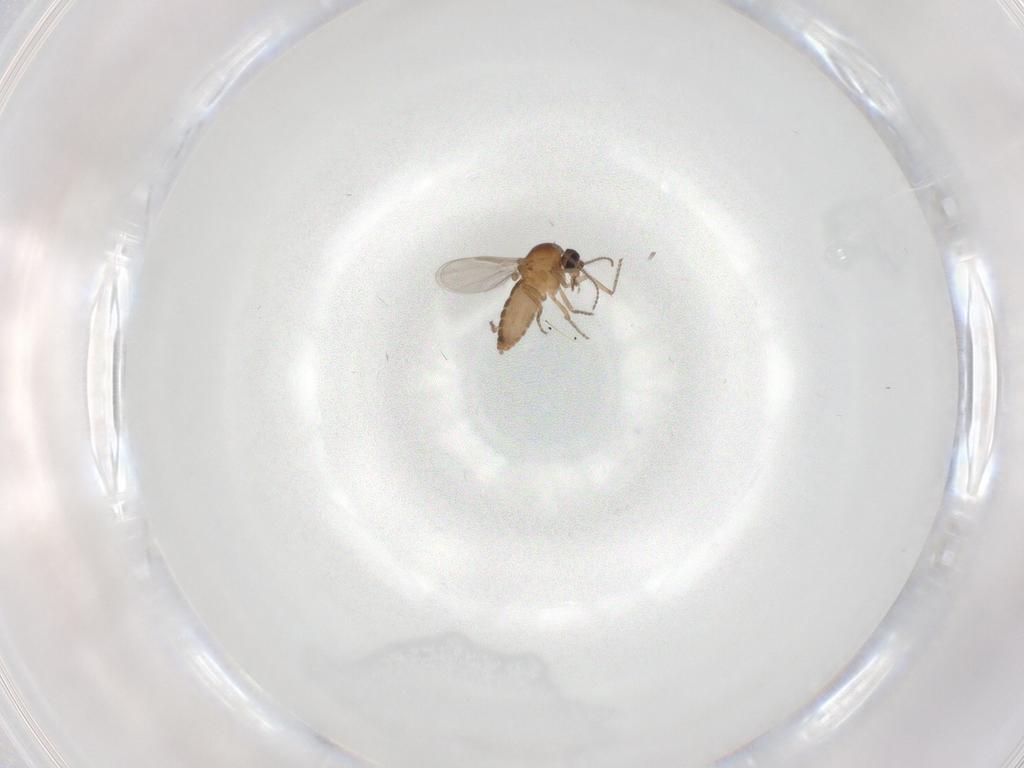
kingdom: Animalia
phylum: Arthropoda
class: Insecta
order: Diptera
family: Ceratopogonidae
